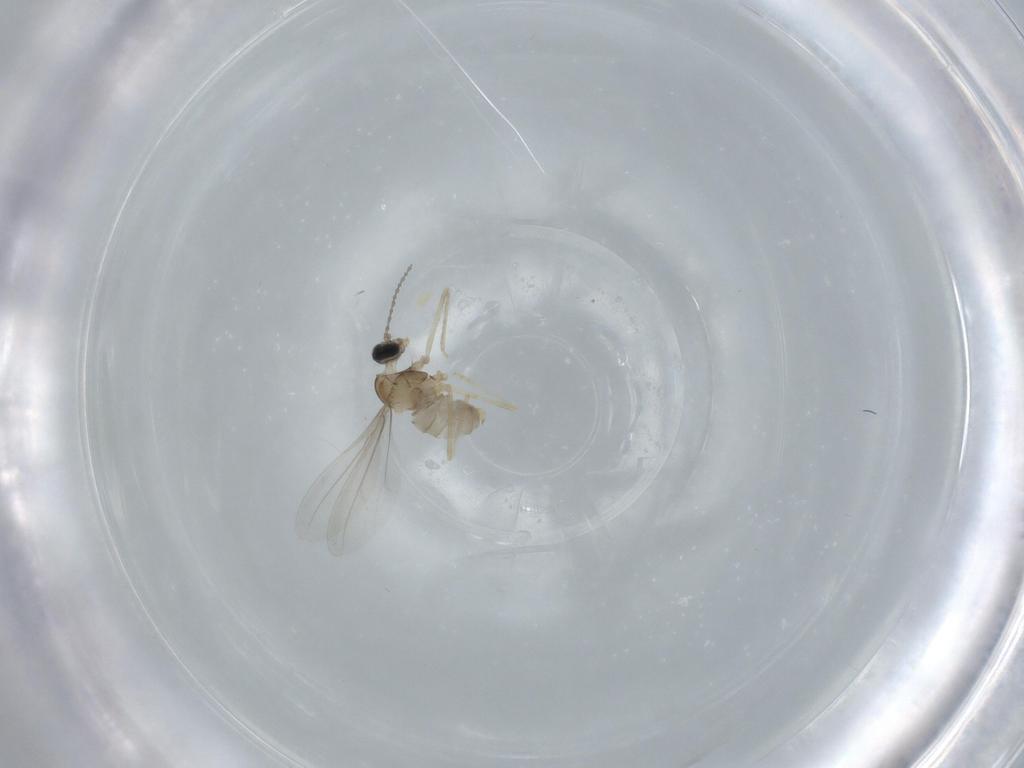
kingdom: Animalia
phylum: Arthropoda
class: Insecta
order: Diptera
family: Cecidomyiidae
